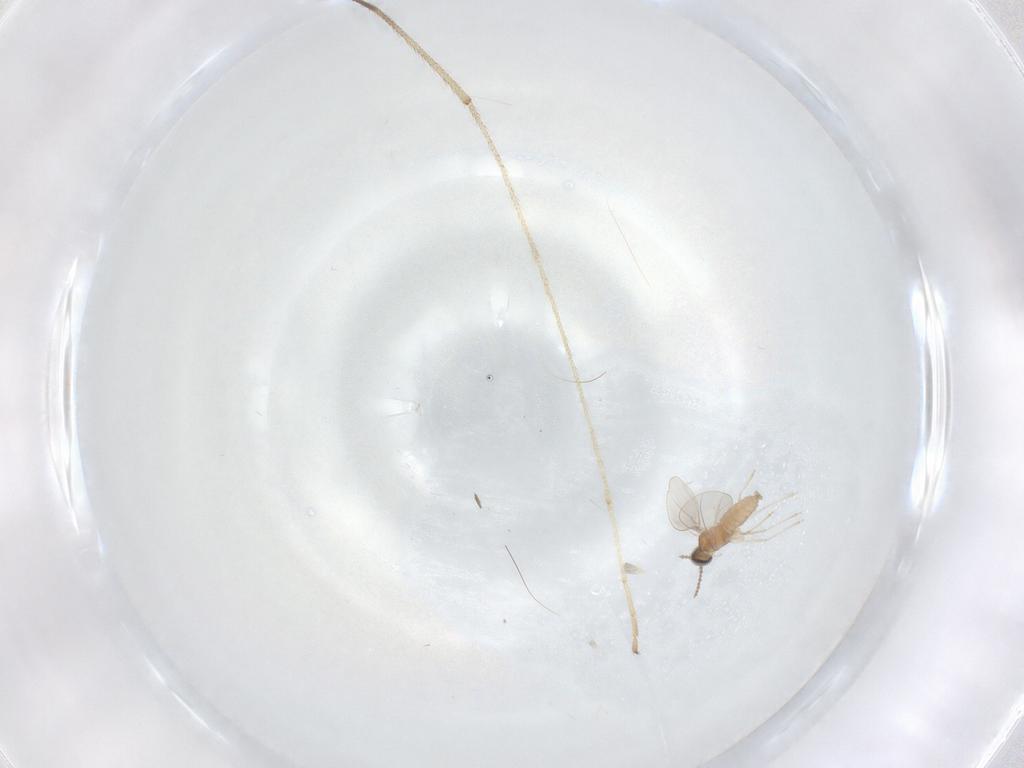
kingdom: Animalia
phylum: Arthropoda
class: Insecta
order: Diptera
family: Limoniidae
